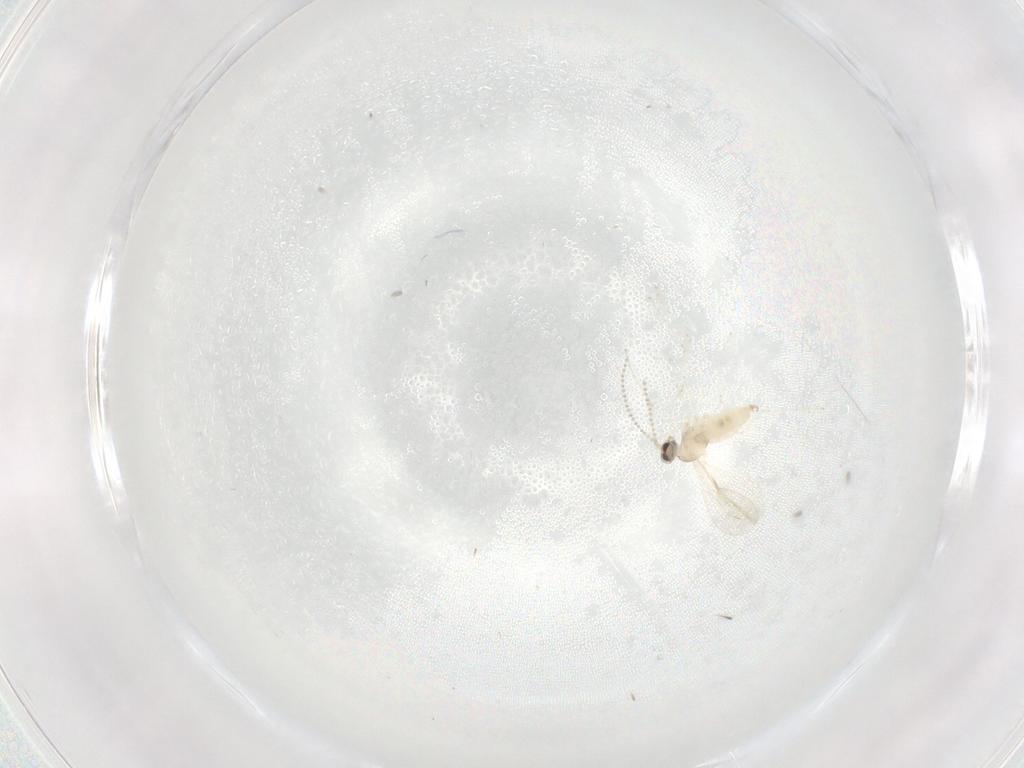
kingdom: Animalia
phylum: Arthropoda
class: Insecta
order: Diptera
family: Cecidomyiidae
